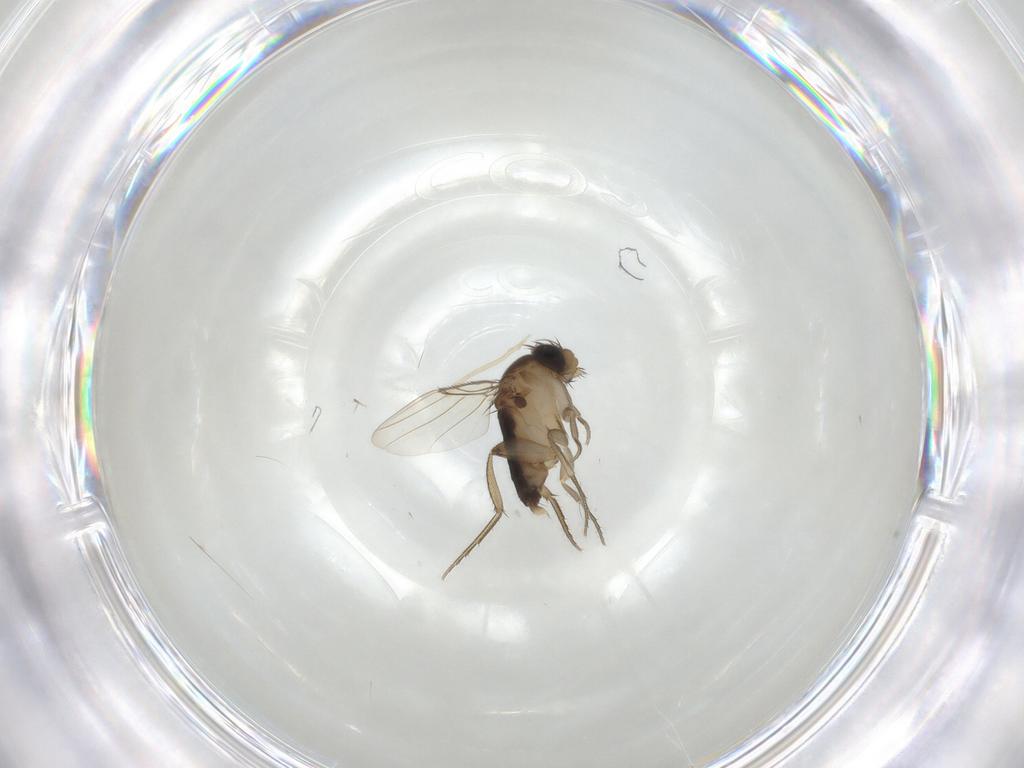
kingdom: Animalia
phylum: Arthropoda
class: Insecta
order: Diptera
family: Phoridae
